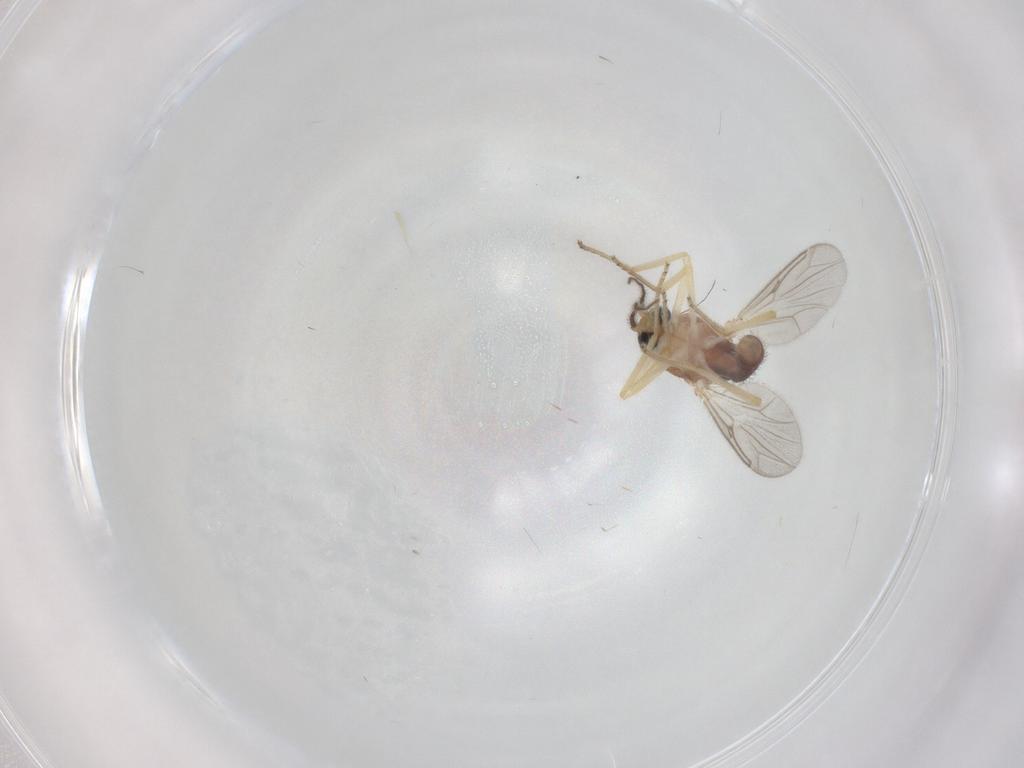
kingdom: Animalia
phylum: Arthropoda
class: Insecta
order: Diptera
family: Ceratopogonidae
